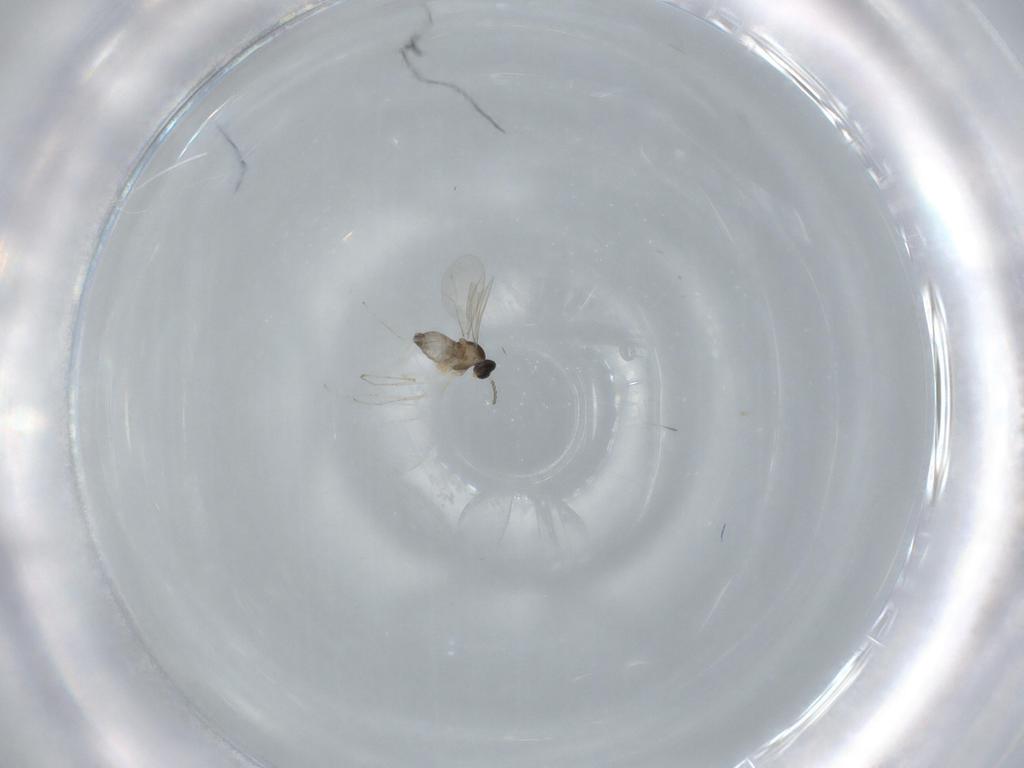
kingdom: Animalia
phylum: Arthropoda
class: Insecta
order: Diptera
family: Cecidomyiidae
